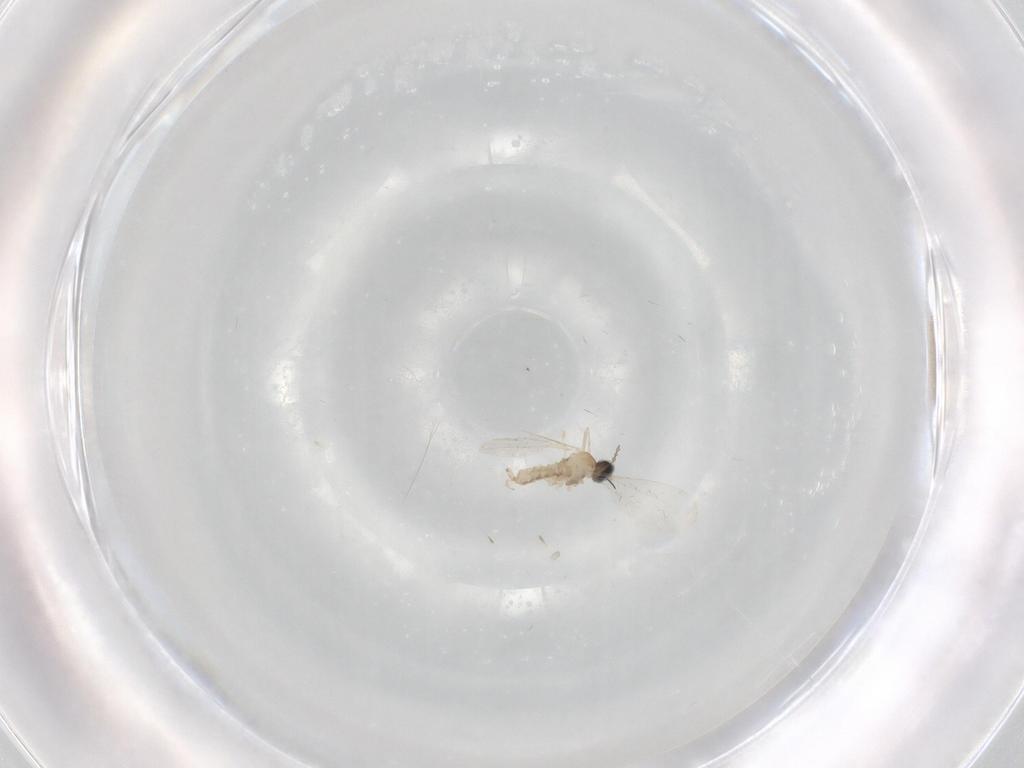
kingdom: Animalia
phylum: Arthropoda
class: Insecta
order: Diptera
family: Cecidomyiidae
